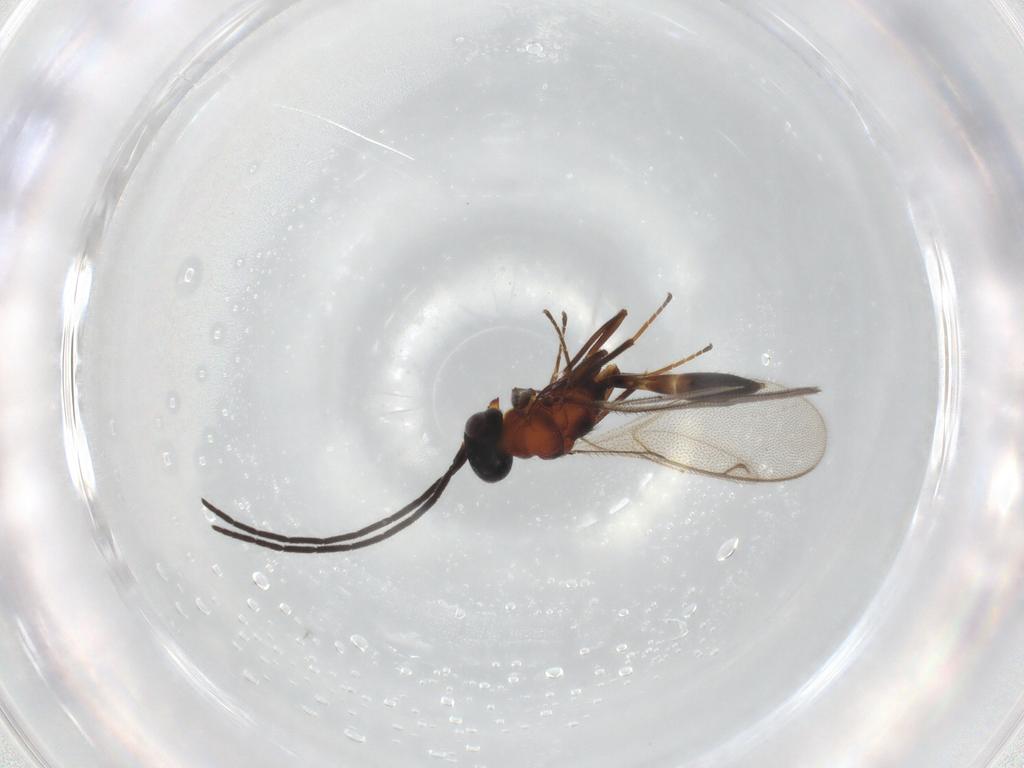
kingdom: Animalia
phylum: Arthropoda
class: Insecta
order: Hymenoptera
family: Pteromalidae
